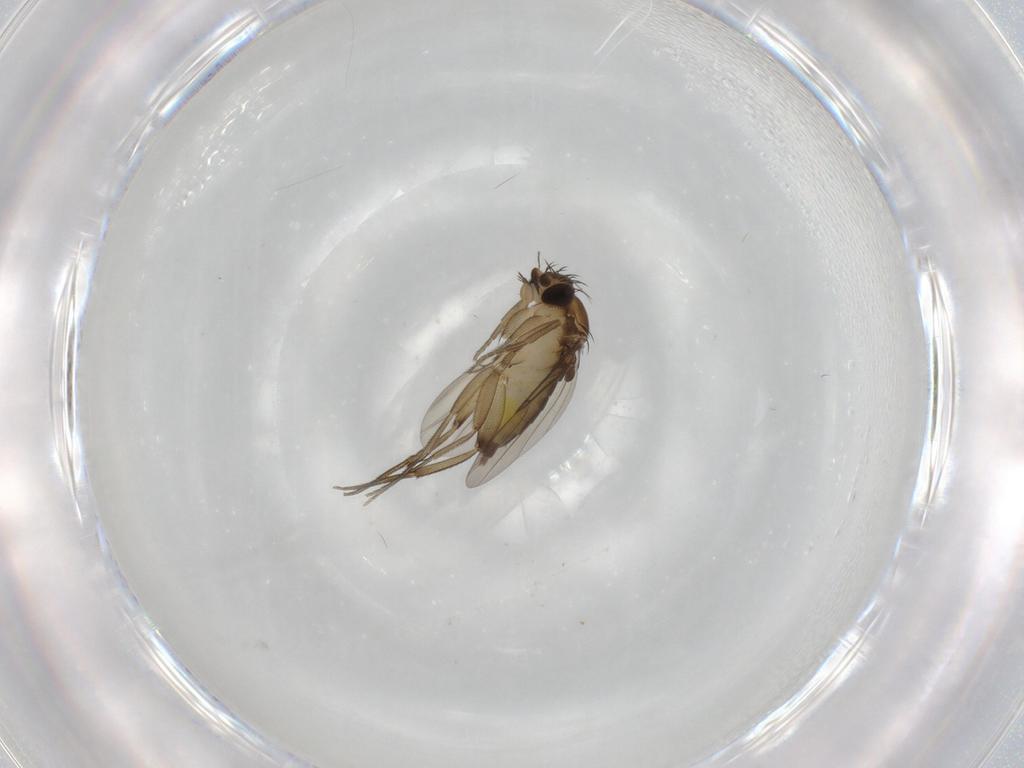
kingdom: Animalia
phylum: Arthropoda
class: Insecta
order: Diptera
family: Phoridae
